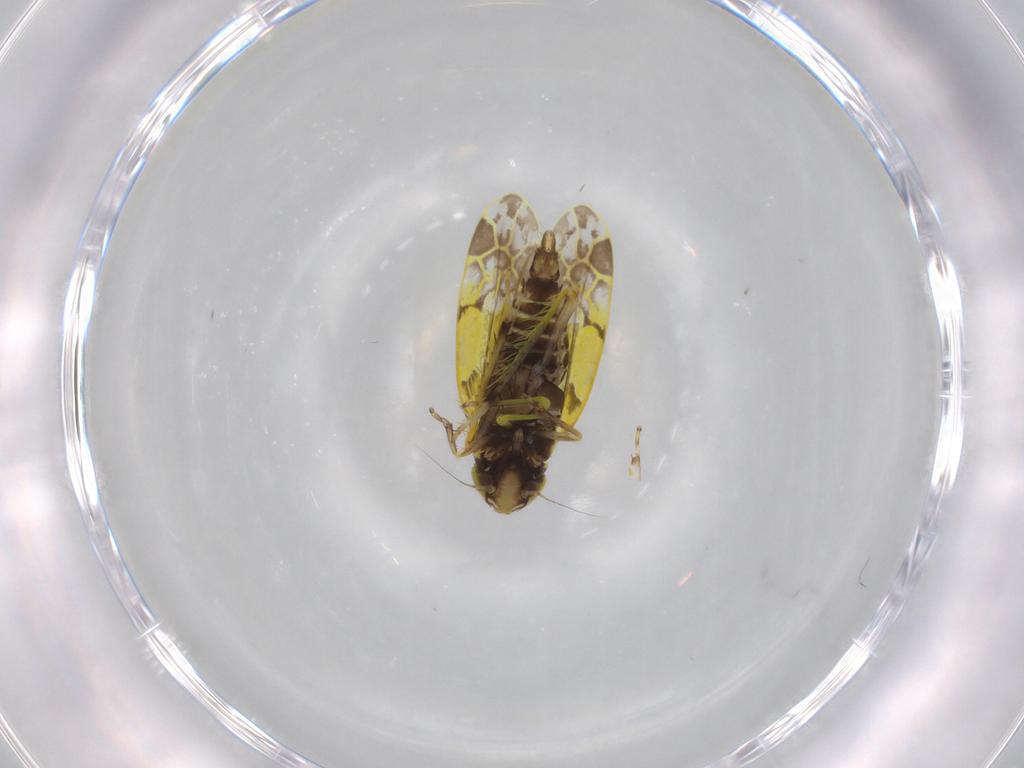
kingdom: Animalia
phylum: Arthropoda
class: Insecta
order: Hemiptera
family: Cicadellidae
